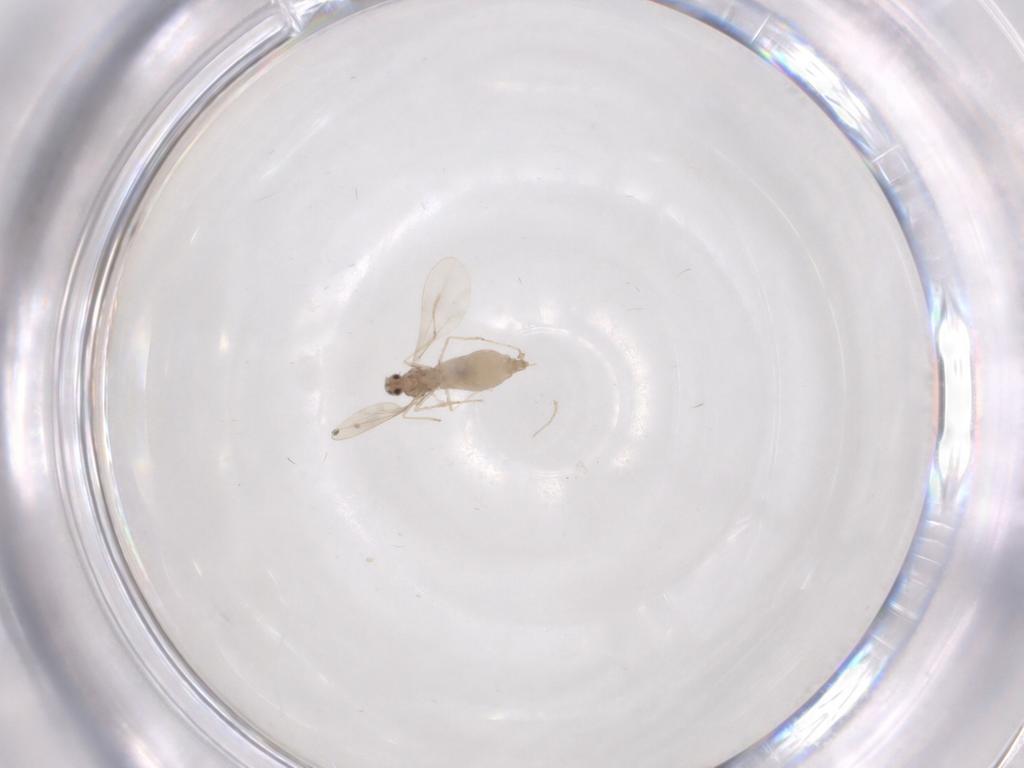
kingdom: Animalia
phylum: Arthropoda
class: Insecta
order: Diptera
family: Cecidomyiidae
